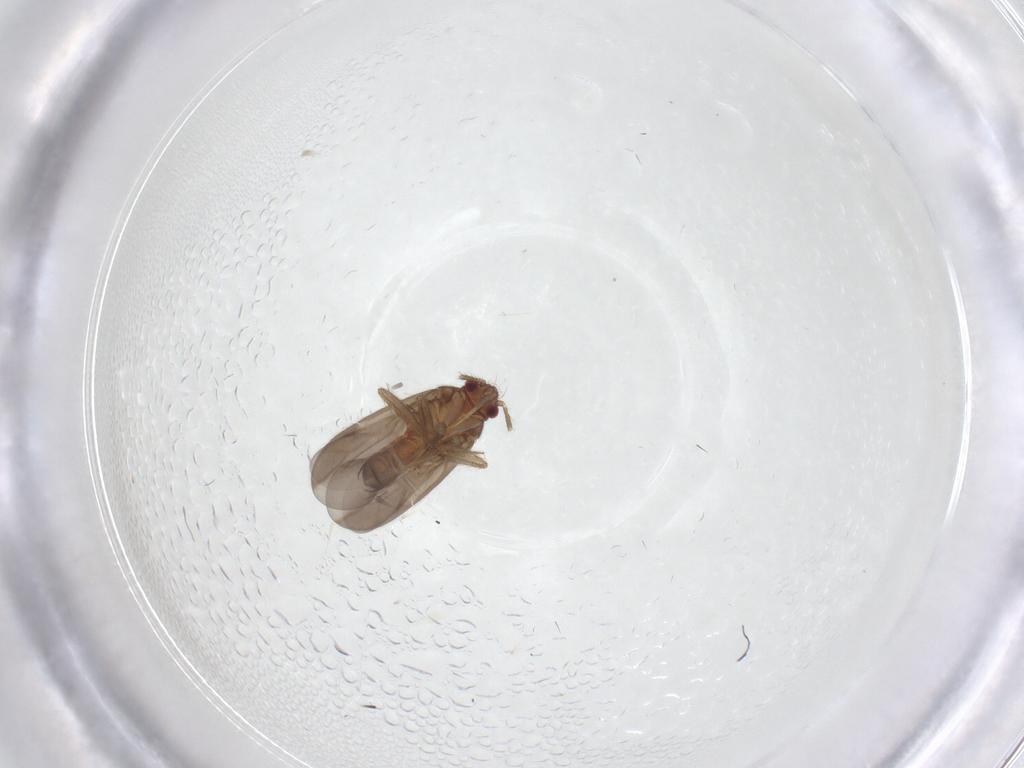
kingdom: Animalia
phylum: Arthropoda
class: Insecta
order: Hemiptera
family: Ceratocombidae
